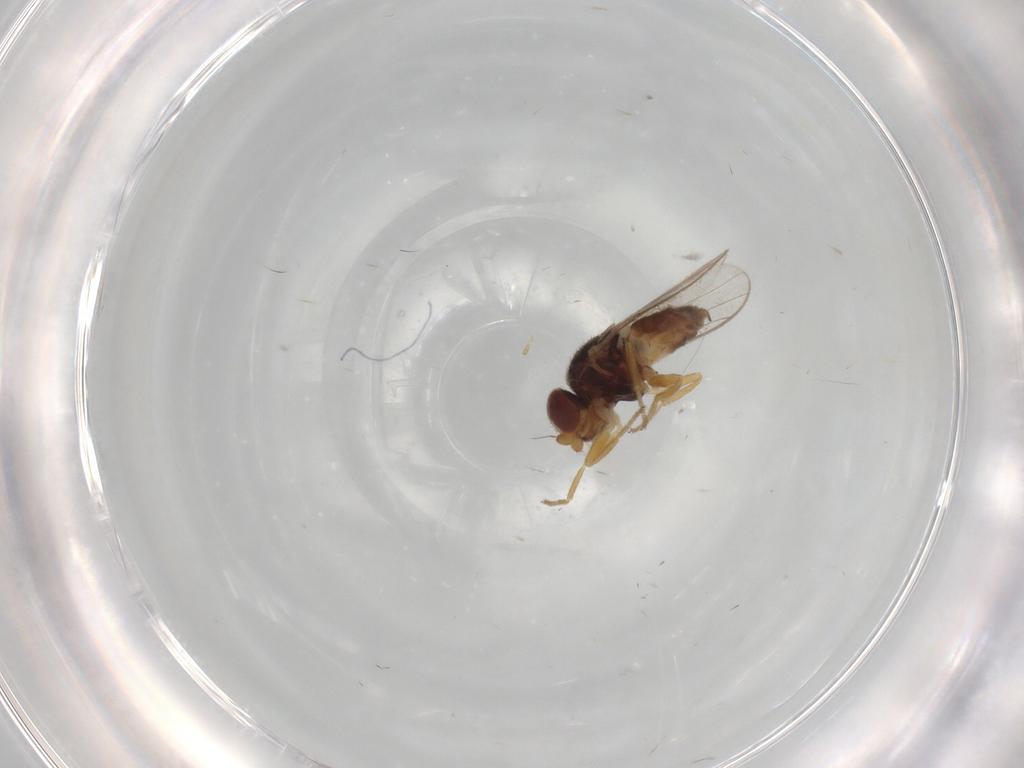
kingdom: Animalia
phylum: Arthropoda
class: Insecta
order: Diptera
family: Chloropidae
